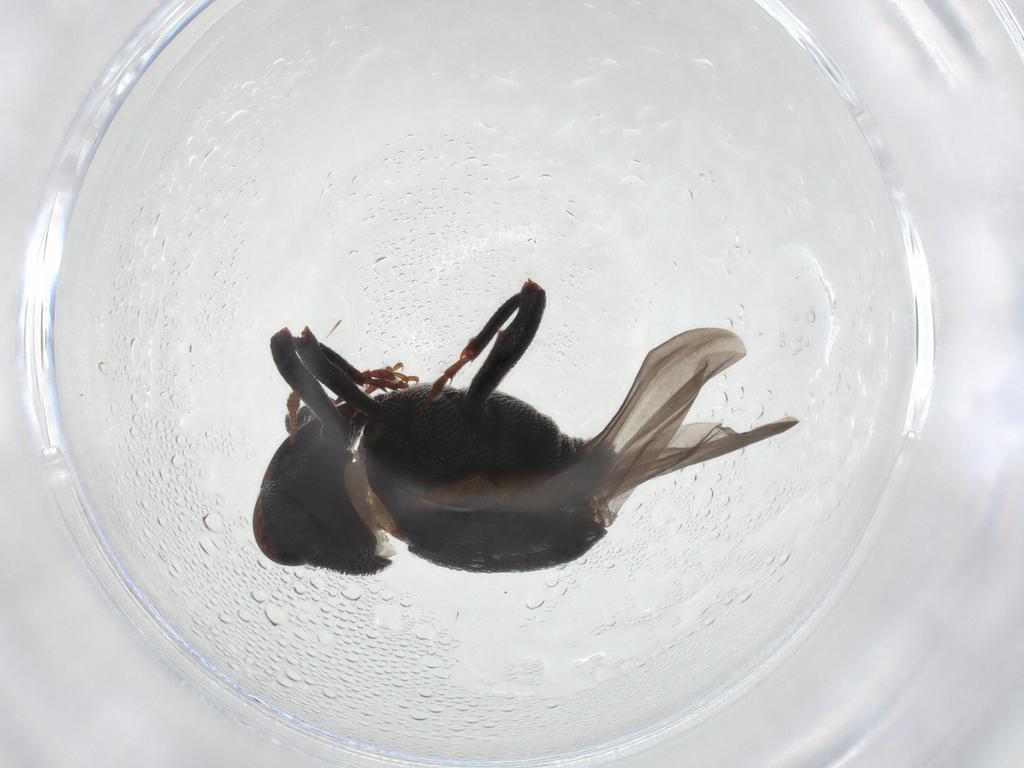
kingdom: Animalia
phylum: Arthropoda
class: Insecta
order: Coleoptera
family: Curculionidae
